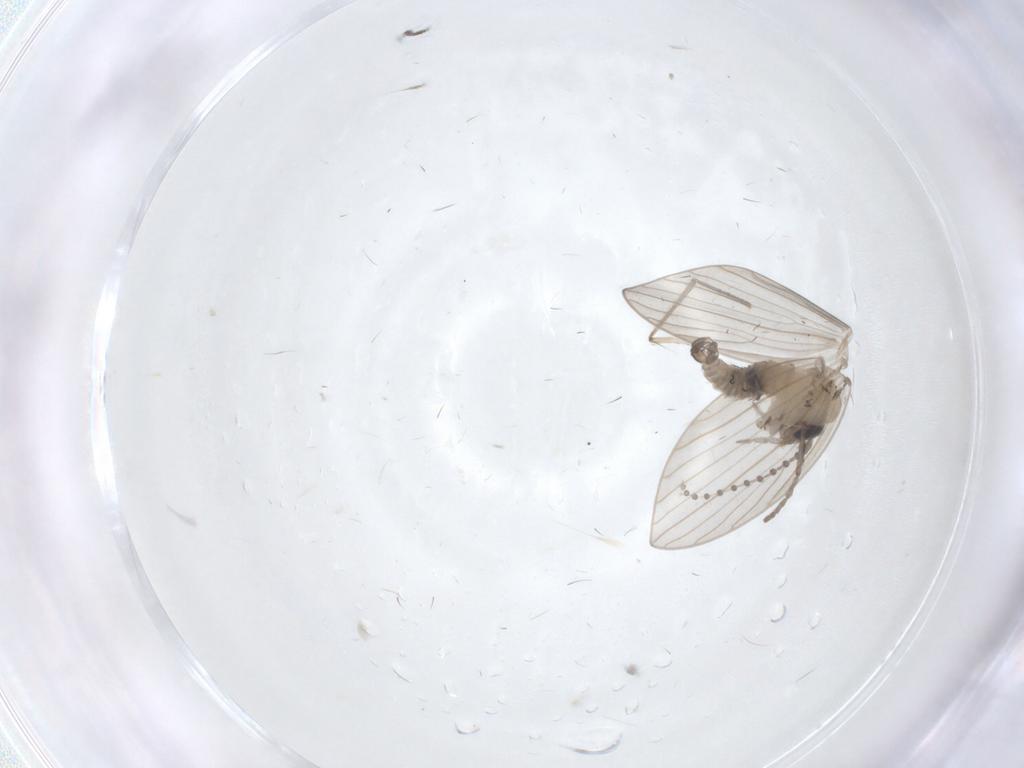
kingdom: Animalia
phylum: Arthropoda
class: Insecta
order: Diptera
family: Psychodidae
